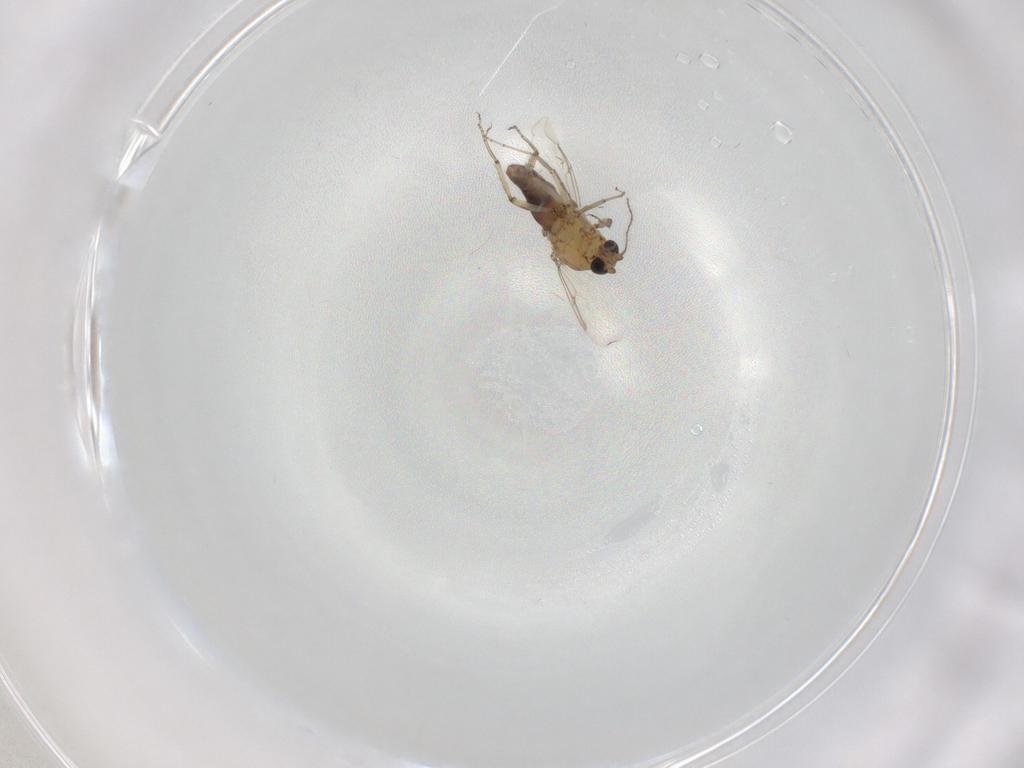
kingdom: Animalia
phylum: Arthropoda
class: Insecta
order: Diptera
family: Ceratopogonidae
